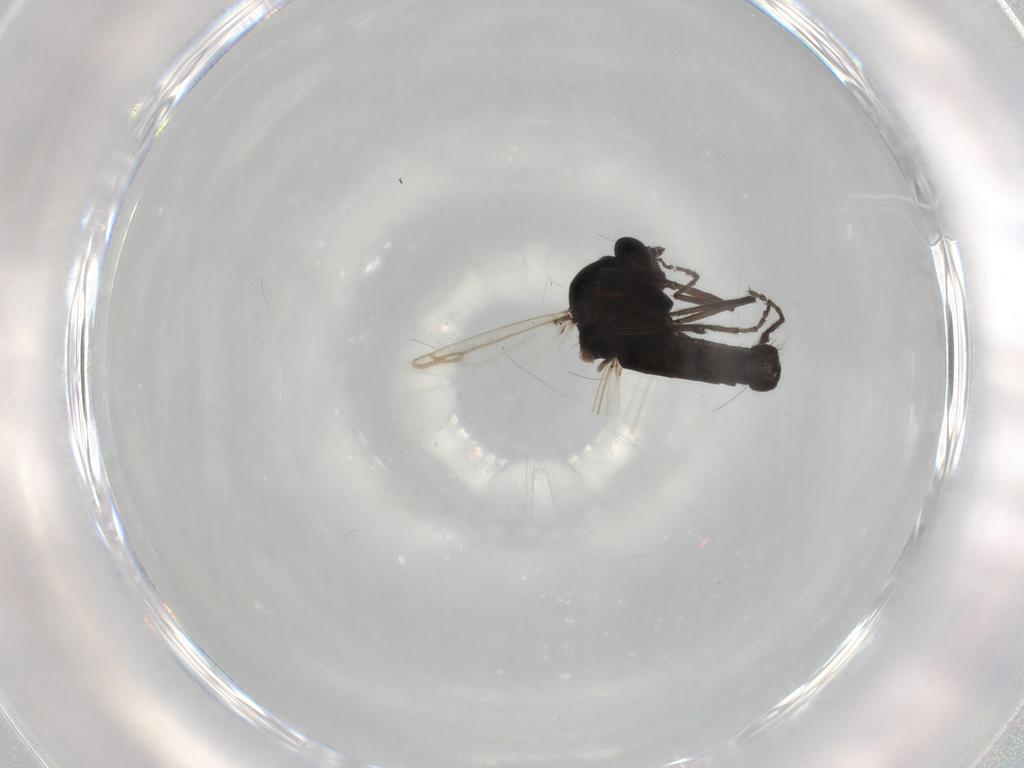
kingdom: Animalia
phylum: Arthropoda
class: Insecta
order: Diptera
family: Ceratopogonidae
